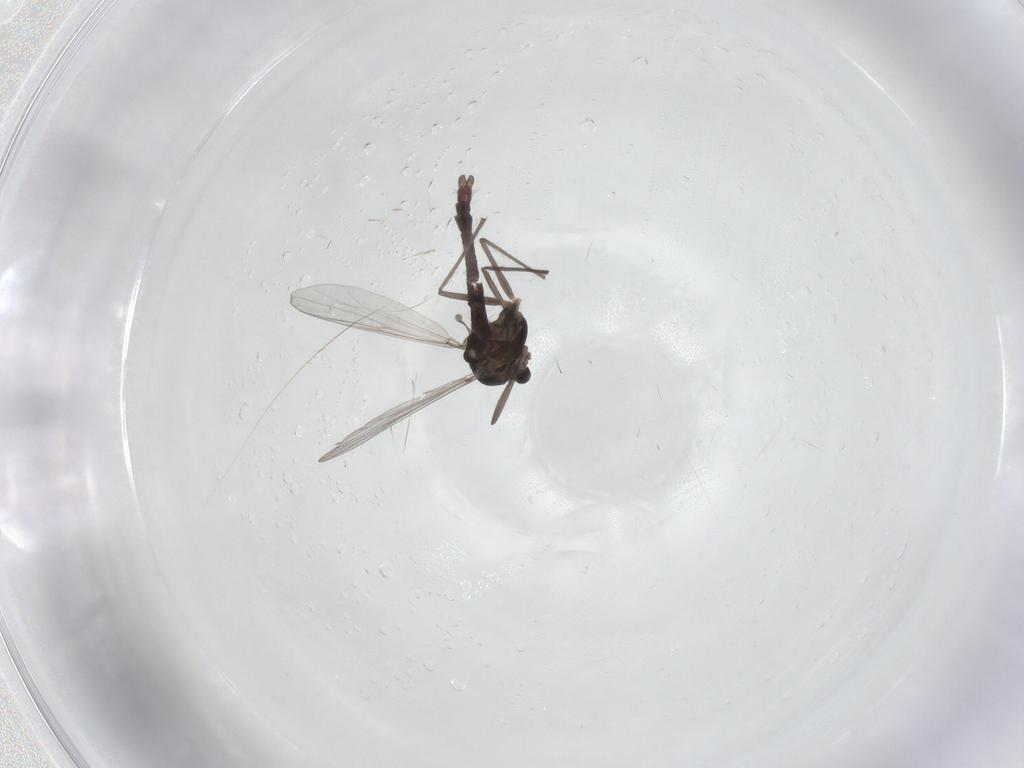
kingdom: Animalia
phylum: Arthropoda
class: Insecta
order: Diptera
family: Chironomidae
